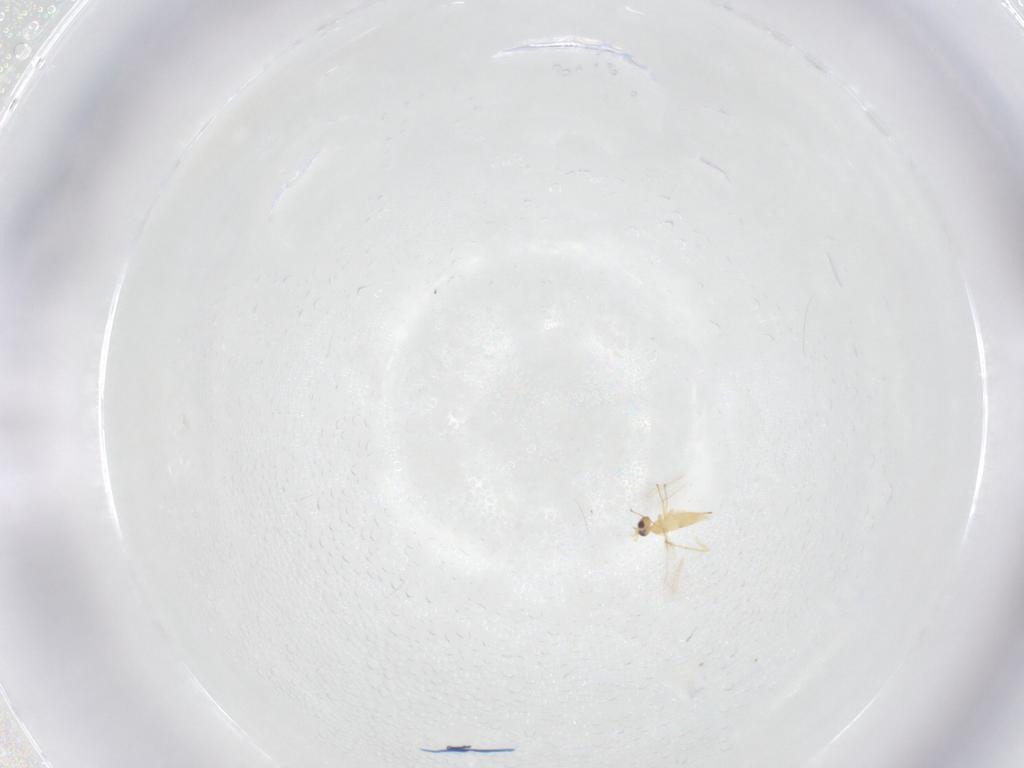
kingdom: Animalia
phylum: Arthropoda
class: Insecta
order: Hymenoptera
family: Mymaridae
